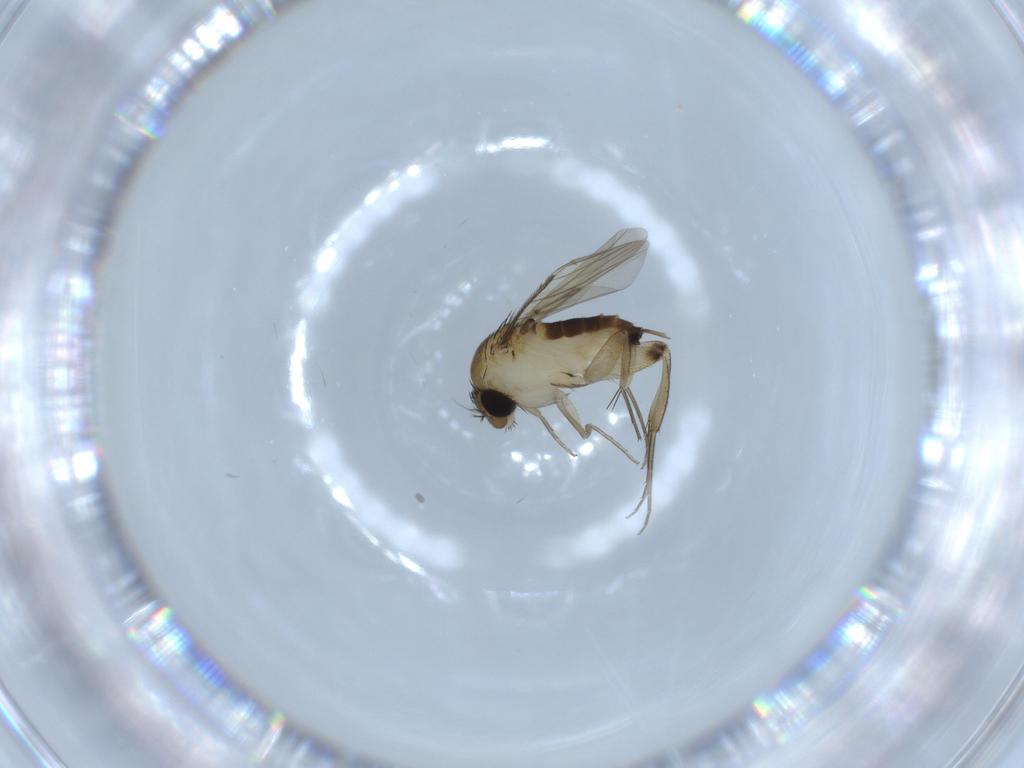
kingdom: Animalia
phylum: Arthropoda
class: Insecta
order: Diptera
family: Phoridae
